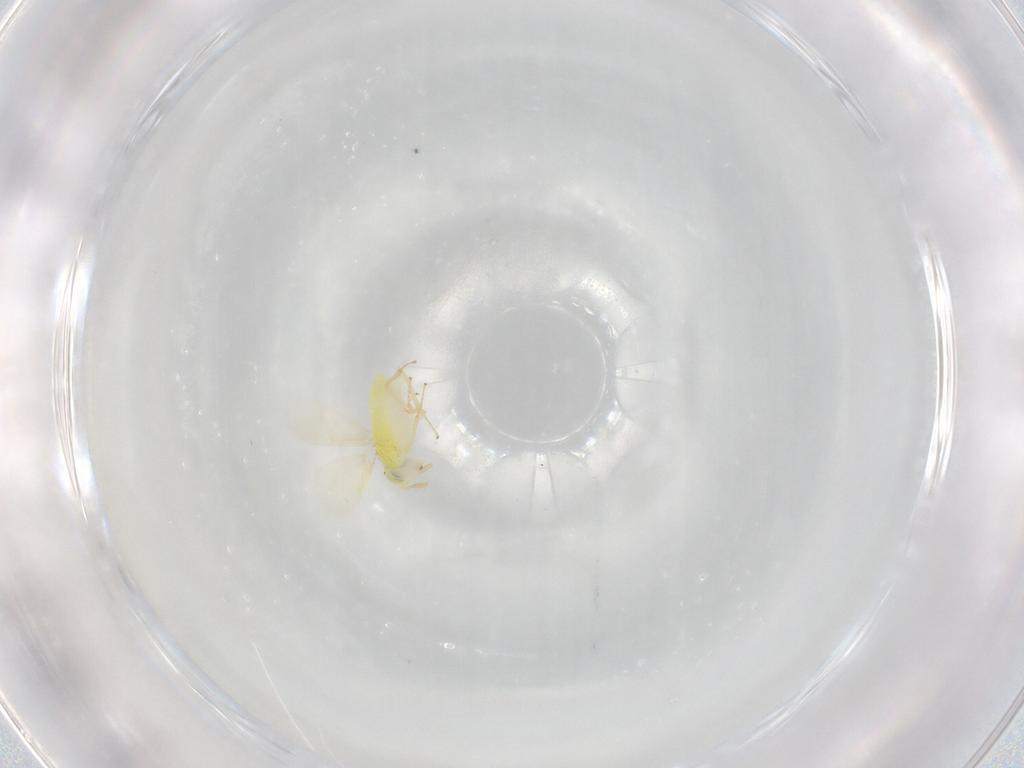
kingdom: Animalia
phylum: Arthropoda
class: Insecta
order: Hymenoptera
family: Aphelinidae
